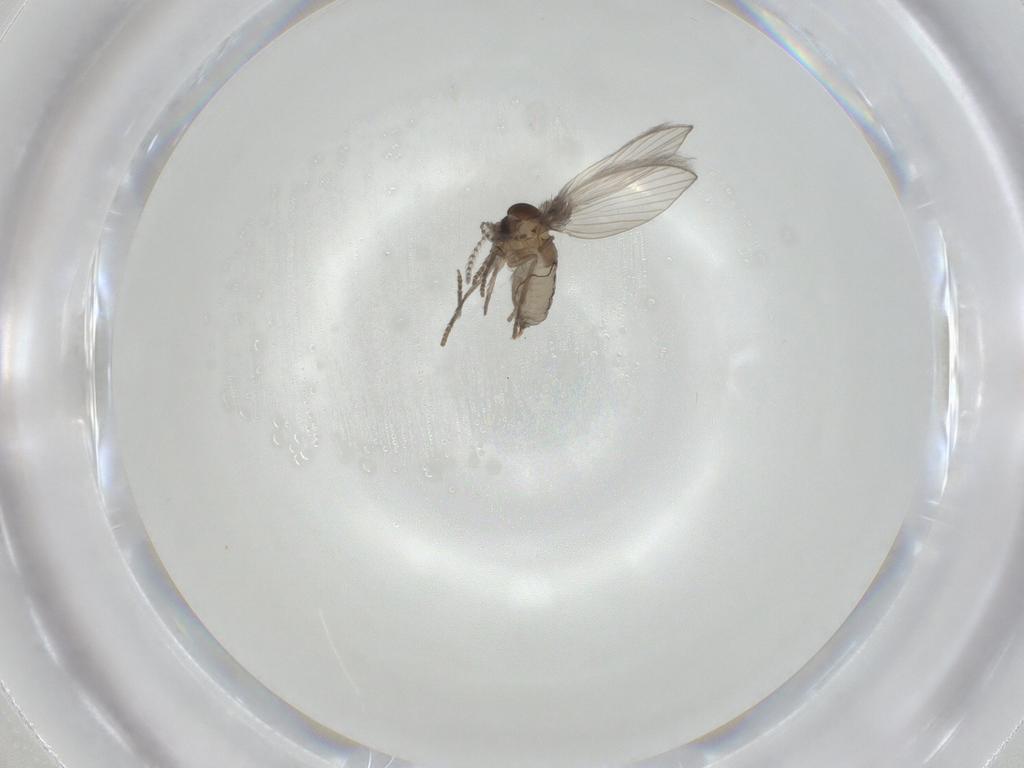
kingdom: Animalia
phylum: Arthropoda
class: Insecta
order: Diptera
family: Psychodidae
